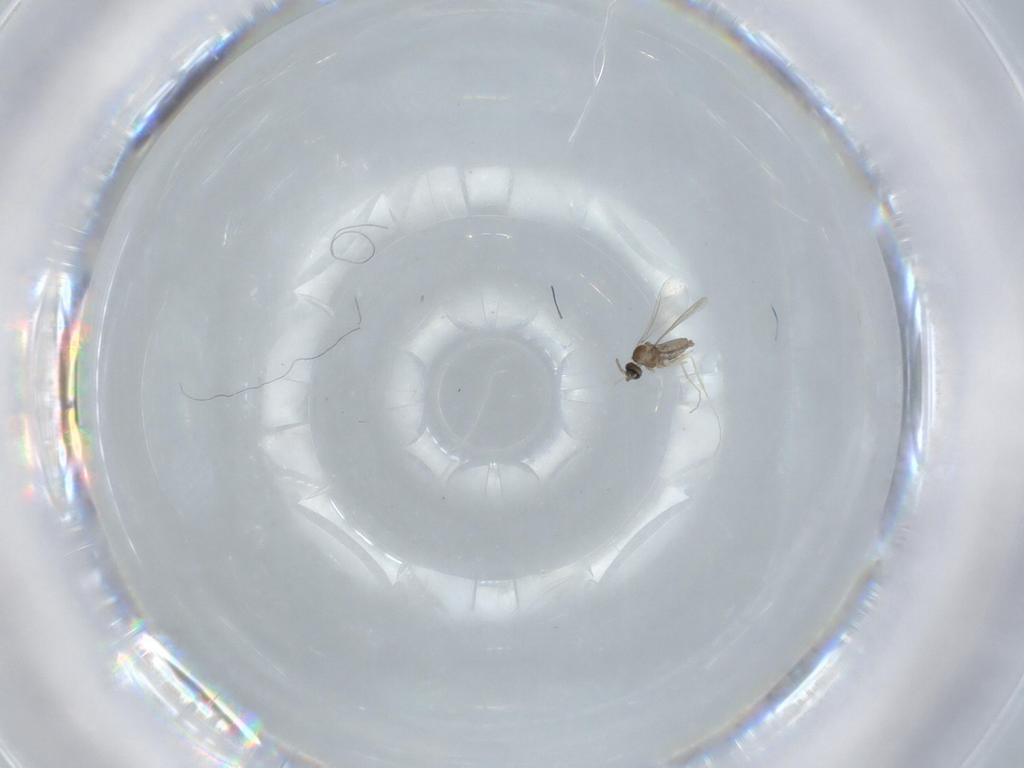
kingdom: Animalia
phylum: Arthropoda
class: Insecta
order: Diptera
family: Cecidomyiidae
